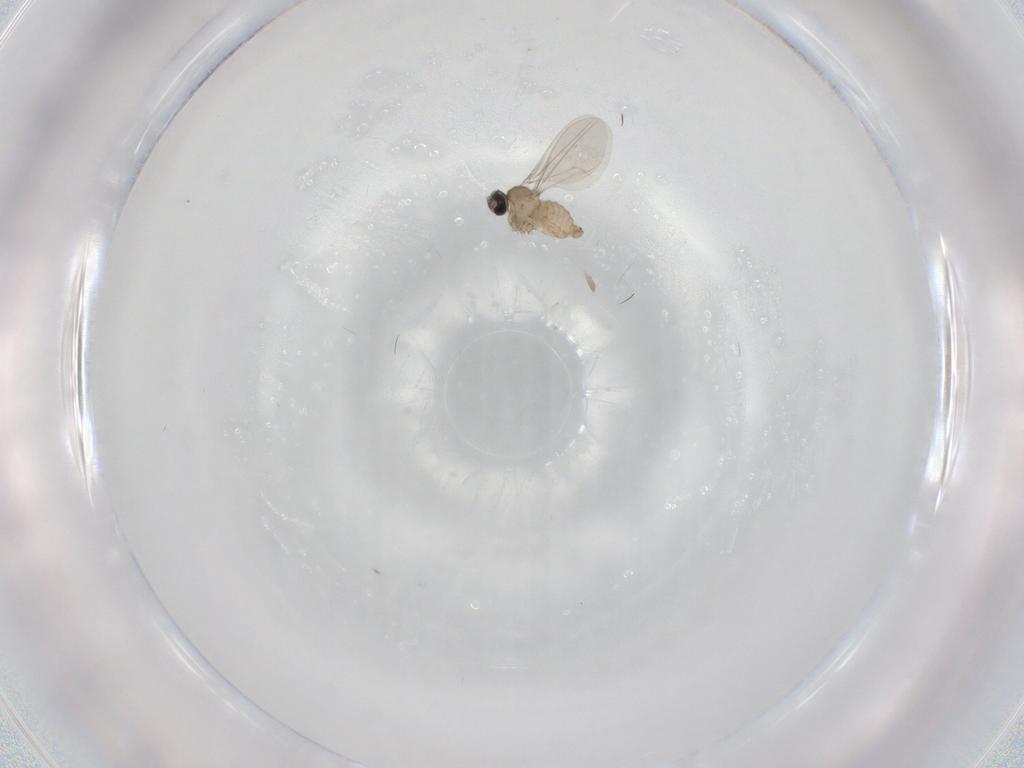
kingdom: Animalia
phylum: Arthropoda
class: Insecta
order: Diptera
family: Cecidomyiidae
